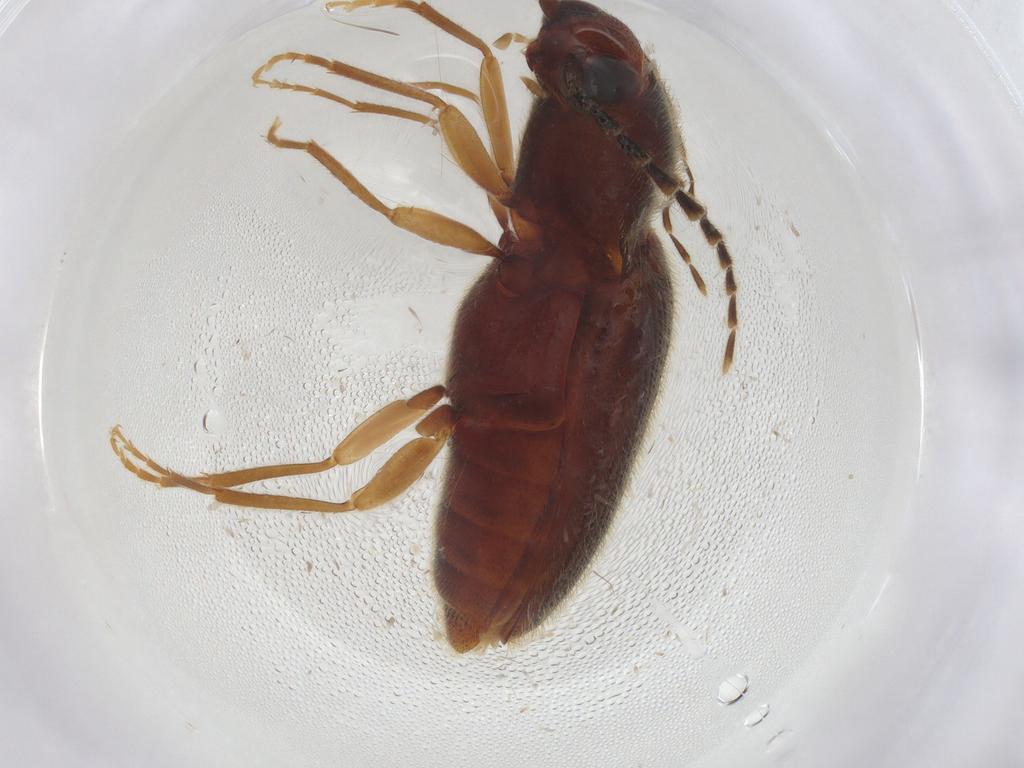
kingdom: Animalia
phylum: Arthropoda
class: Insecta
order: Coleoptera
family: Elateridae
